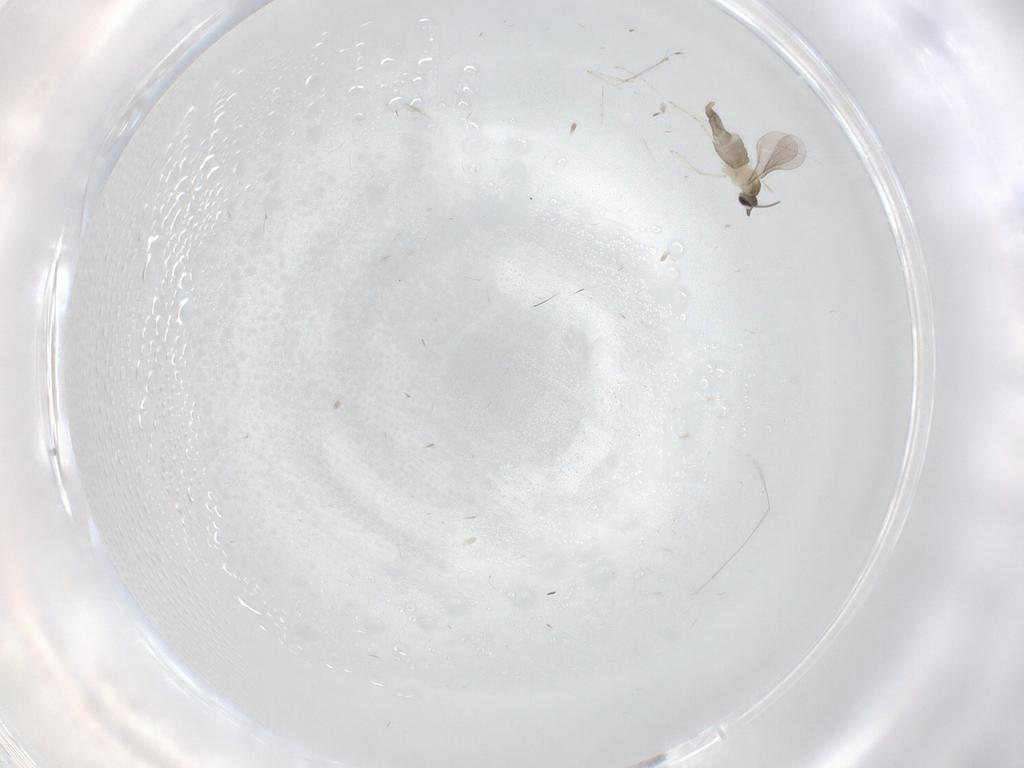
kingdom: Animalia
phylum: Arthropoda
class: Insecta
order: Diptera
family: Cecidomyiidae
